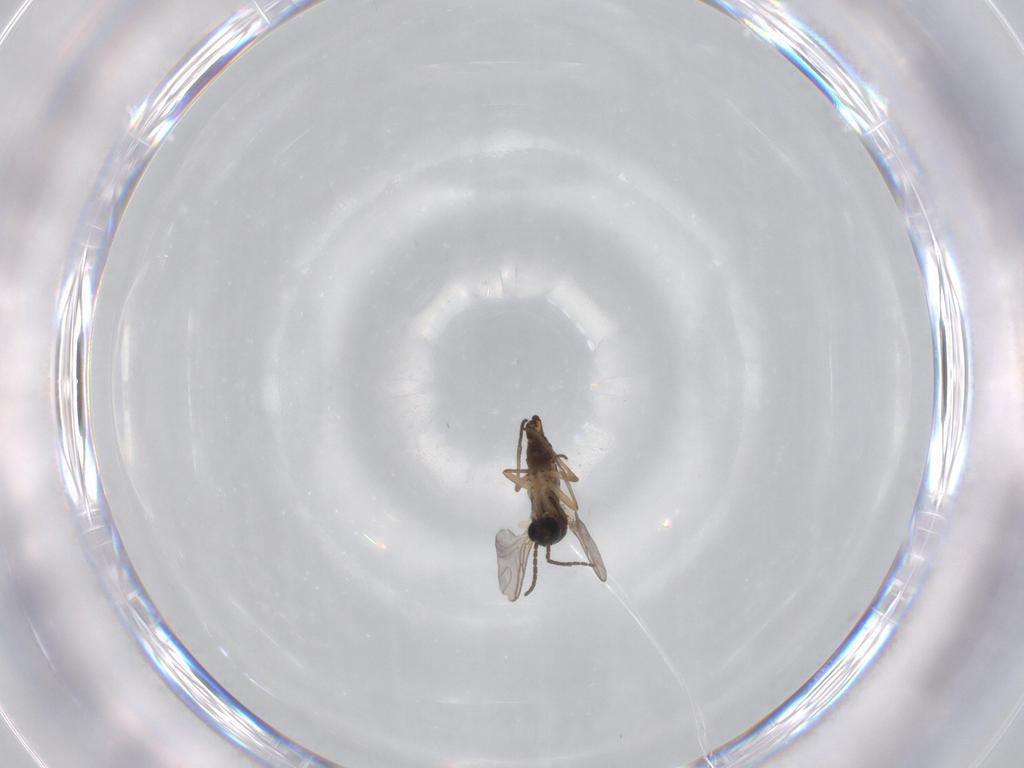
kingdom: Animalia
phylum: Arthropoda
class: Insecta
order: Diptera
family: Sciaridae
